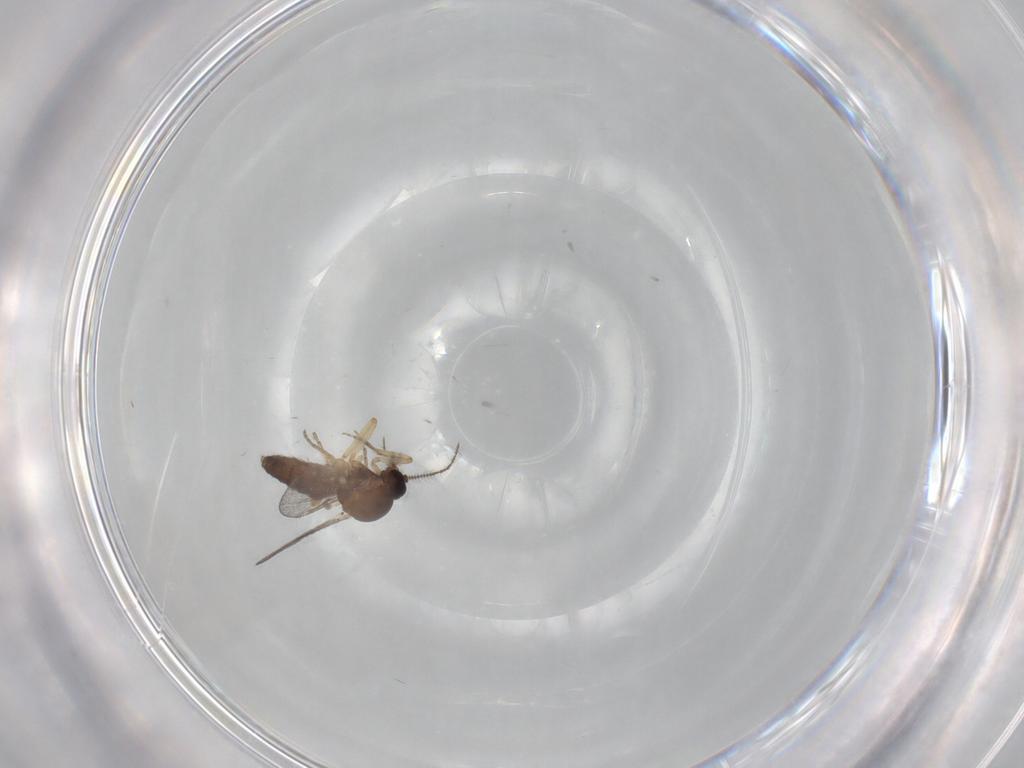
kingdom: Animalia
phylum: Arthropoda
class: Insecta
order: Diptera
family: Ceratopogonidae
